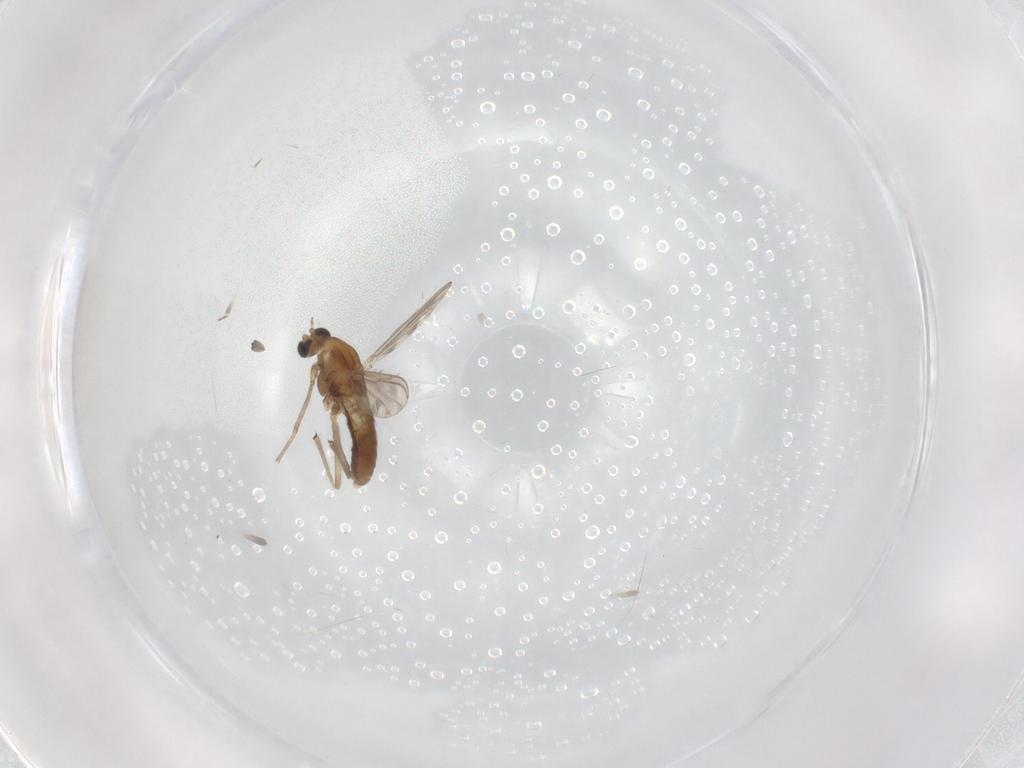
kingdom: Animalia
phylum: Arthropoda
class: Insecta
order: Diptera
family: Chironomidae
